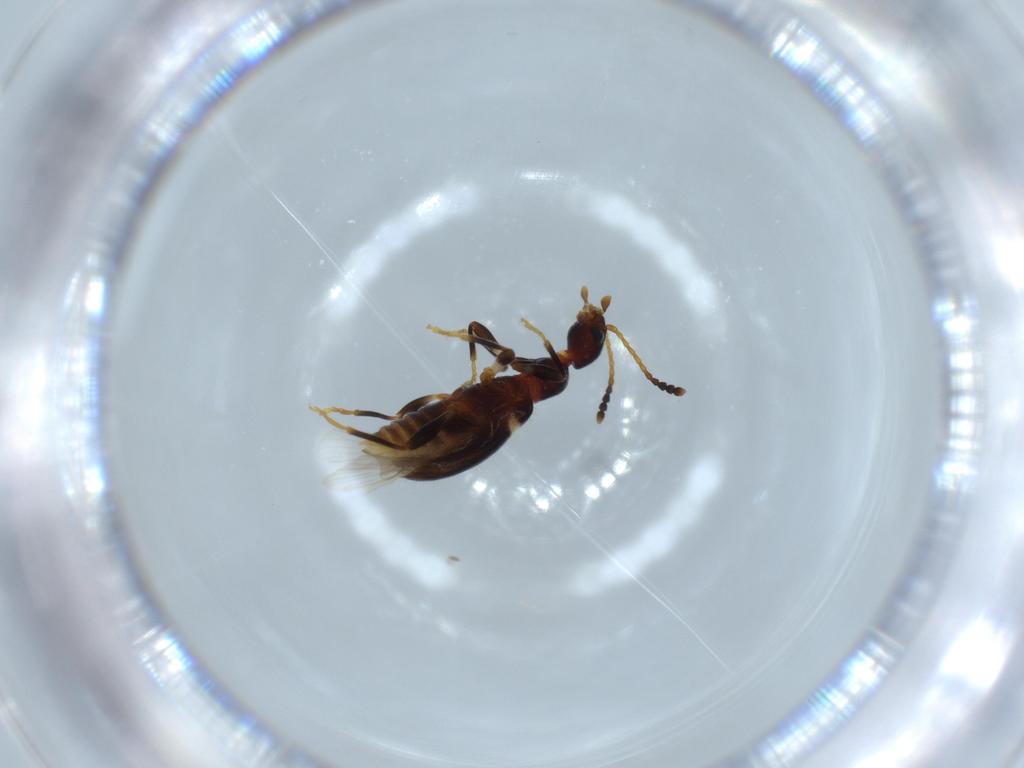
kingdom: Animalia
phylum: Arthropoda
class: Insecta
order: Coleoptera
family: Anthicidae
